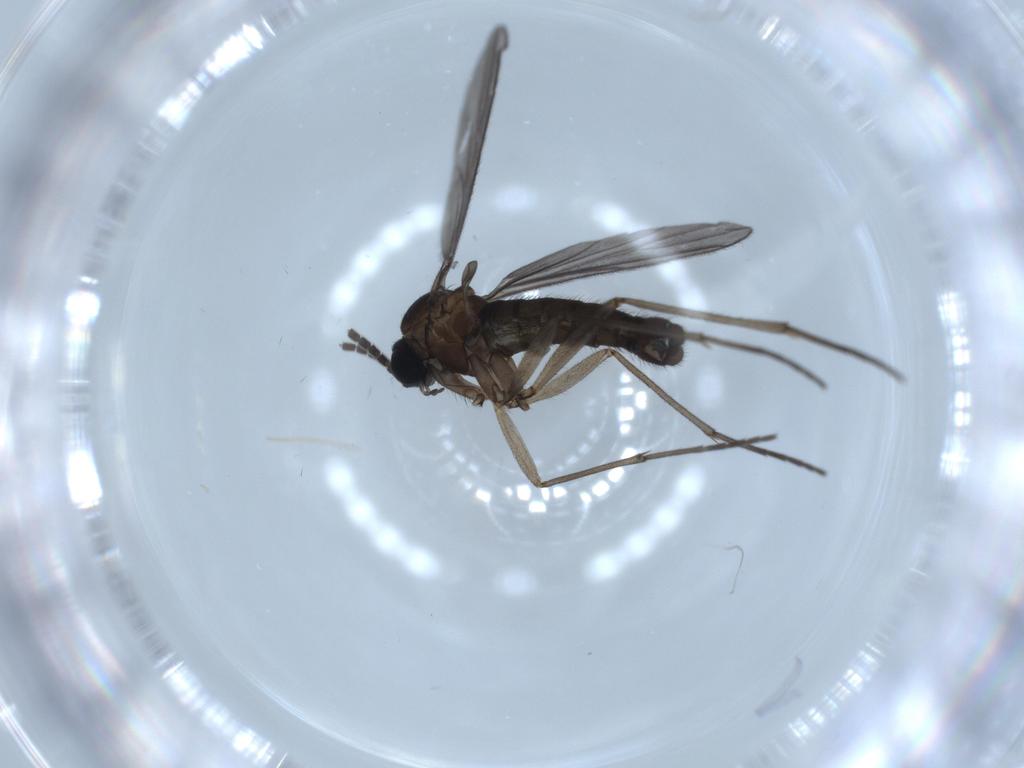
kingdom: Animalia
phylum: Arthropoda
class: Insecta
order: Diptera
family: Sciaridae
